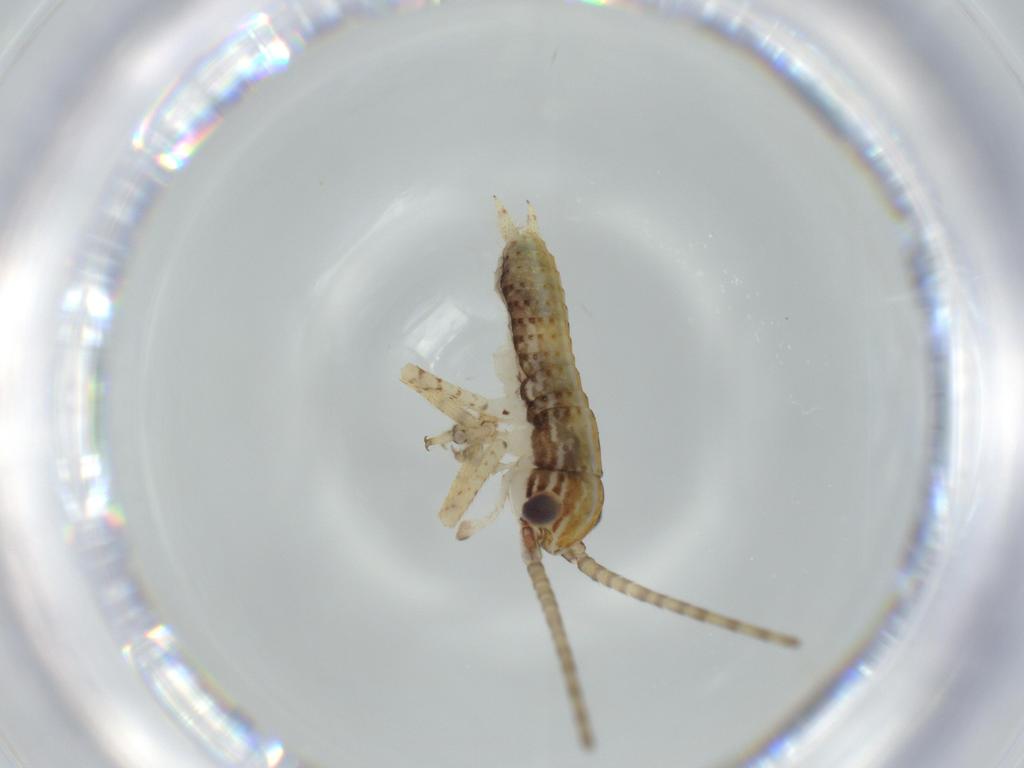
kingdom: Animalia
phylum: Arthropoda
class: Insecta
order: Orthoptera
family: Gryllidae
